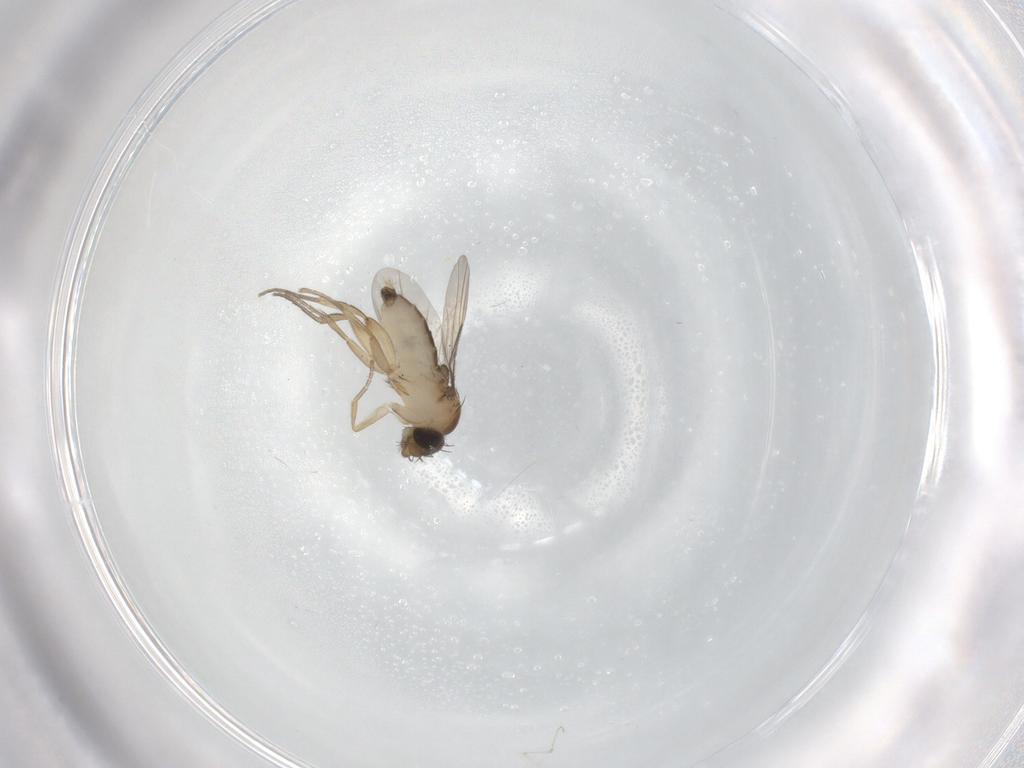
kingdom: Animalia
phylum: Arthropoda
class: Insecta
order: Diptera
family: Phoridae
